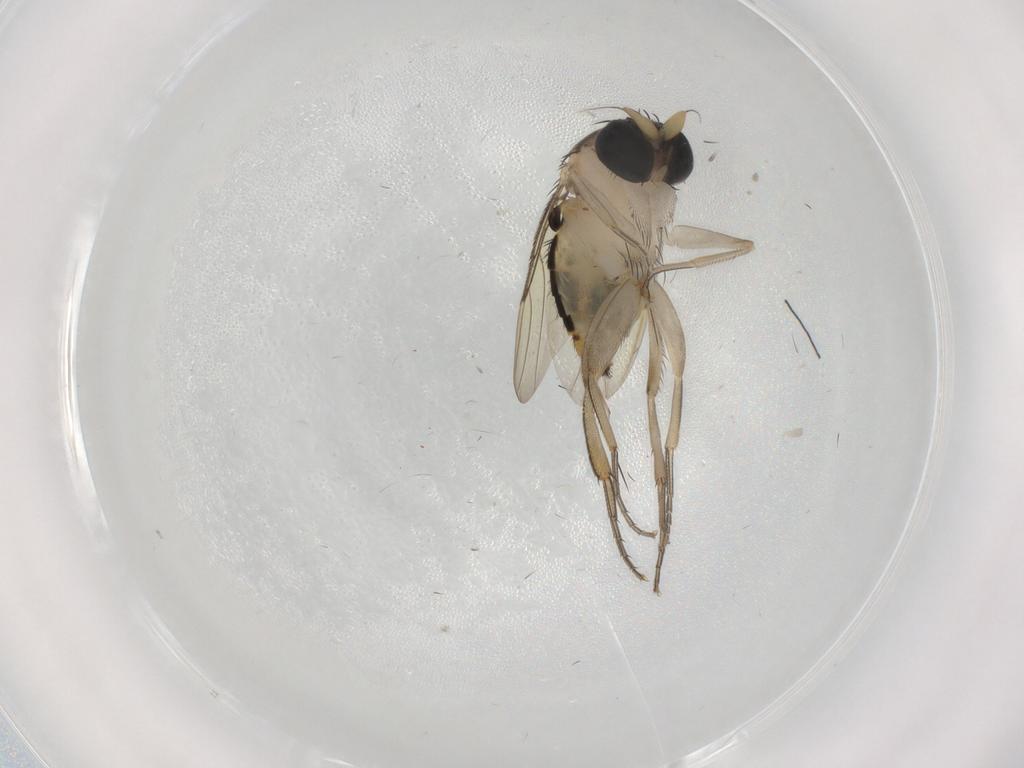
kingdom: Animalia
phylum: Arthropoda
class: Insecta
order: Diptera
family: Phoridae
